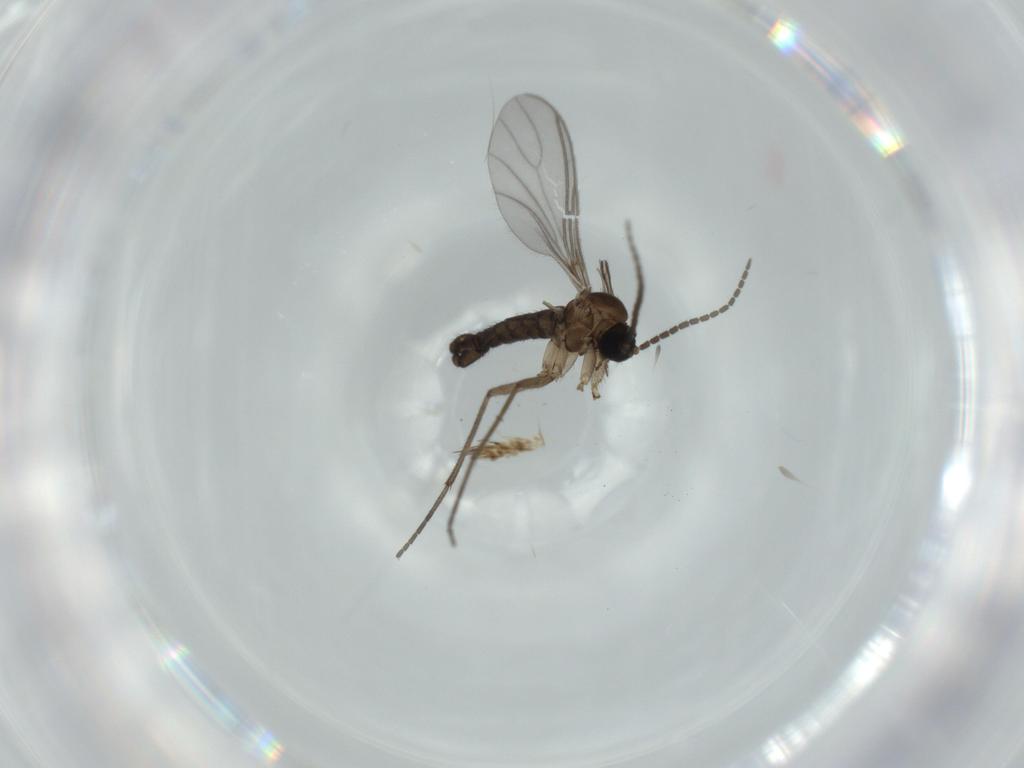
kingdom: Animalia
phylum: Arthropoda
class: Insecta
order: Diptera
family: Sciaridae
